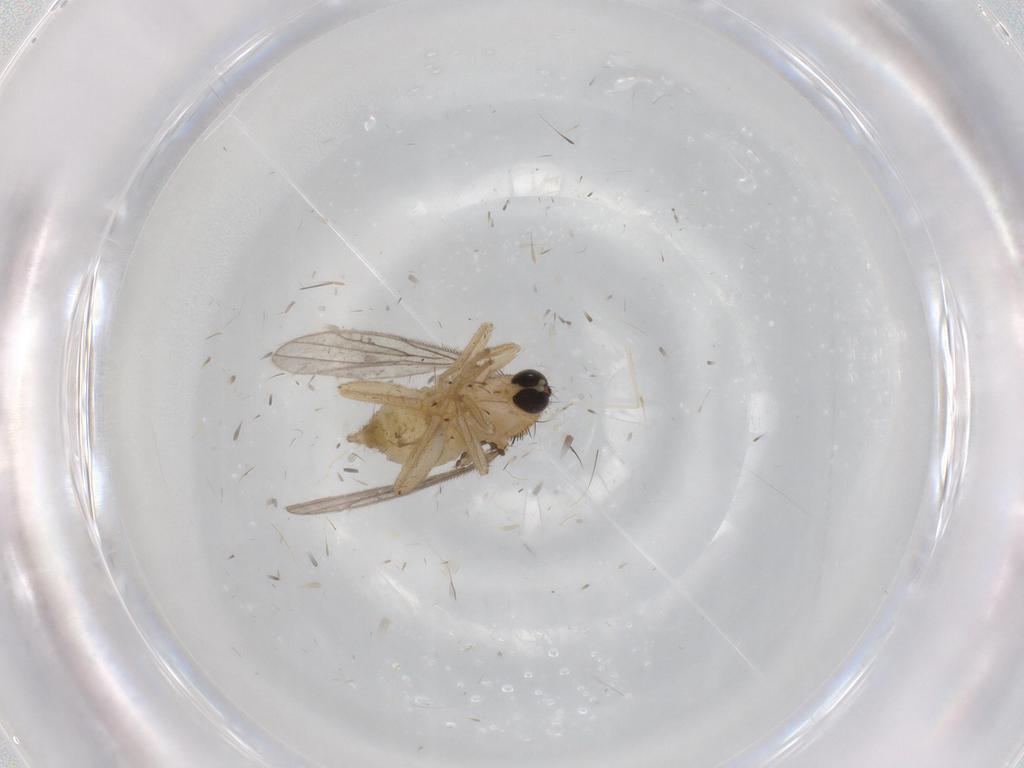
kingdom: Animalia
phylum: Arthropoda
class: Insecta
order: Diptera
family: Hybotidae
